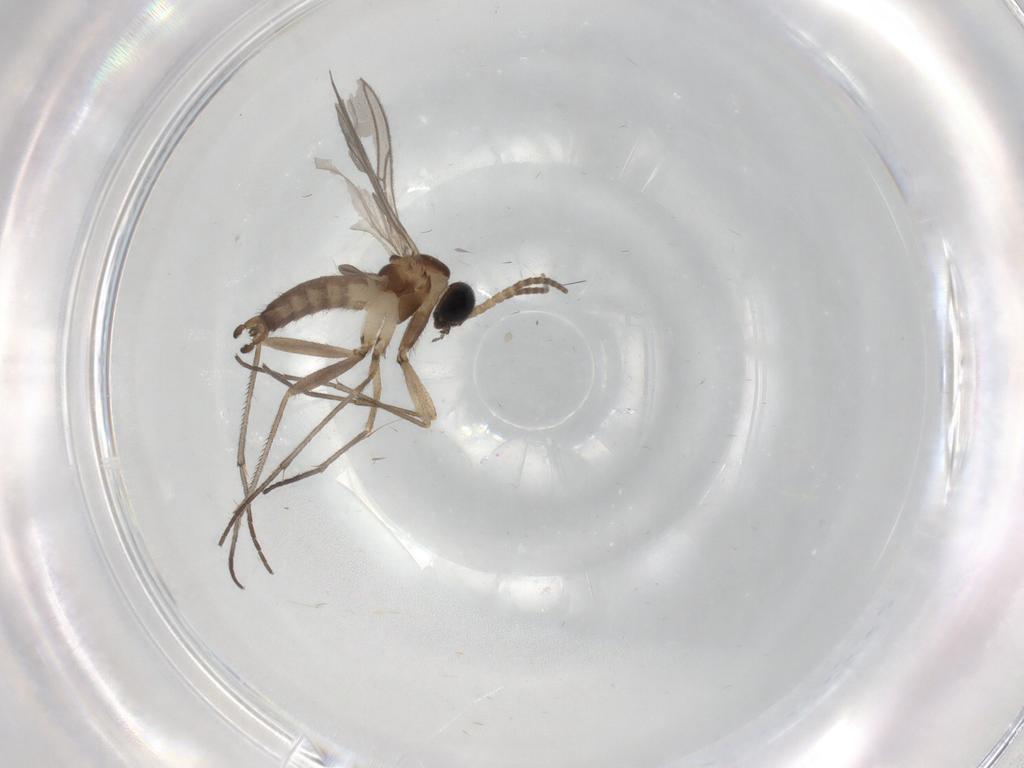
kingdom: Animalia
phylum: Arthropoda
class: Insecta
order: Diptera
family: Sciaridae
